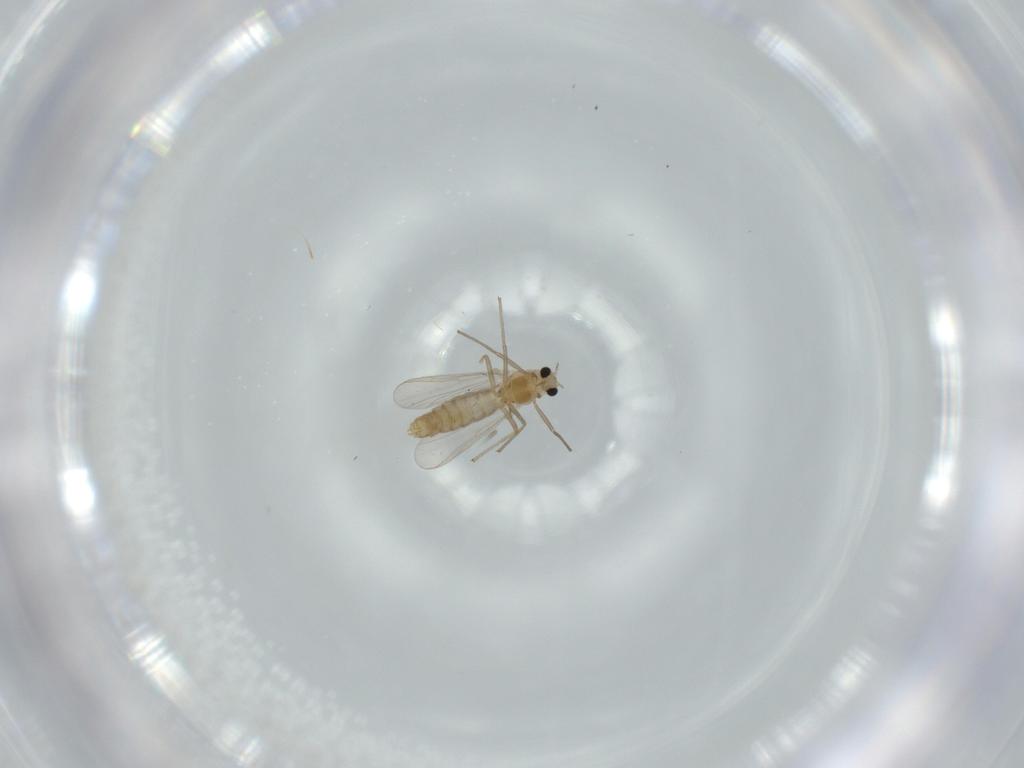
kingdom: Animalia
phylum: Arthropoda
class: Insecta
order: Diptera
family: Chironomidae
